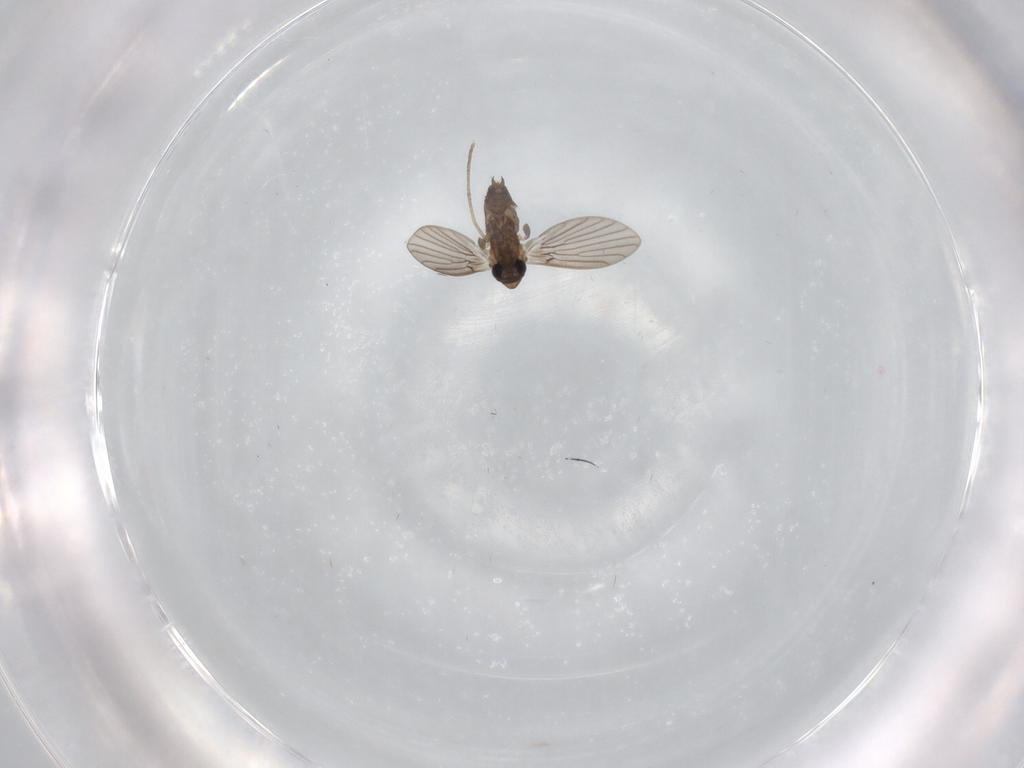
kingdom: Animalia
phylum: Arthropoda
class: Insecta
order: Diptera
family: Chironomidae
